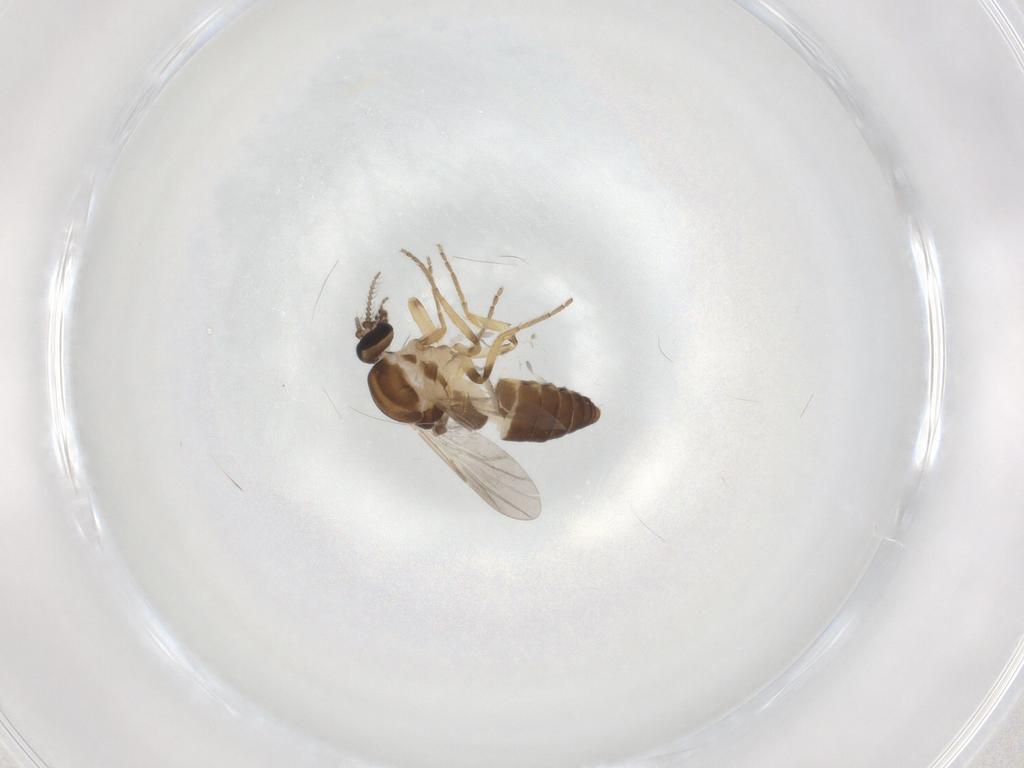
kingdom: Animalia
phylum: Arthropoda
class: Insecta
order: Diptera
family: Ceratopogonidae
